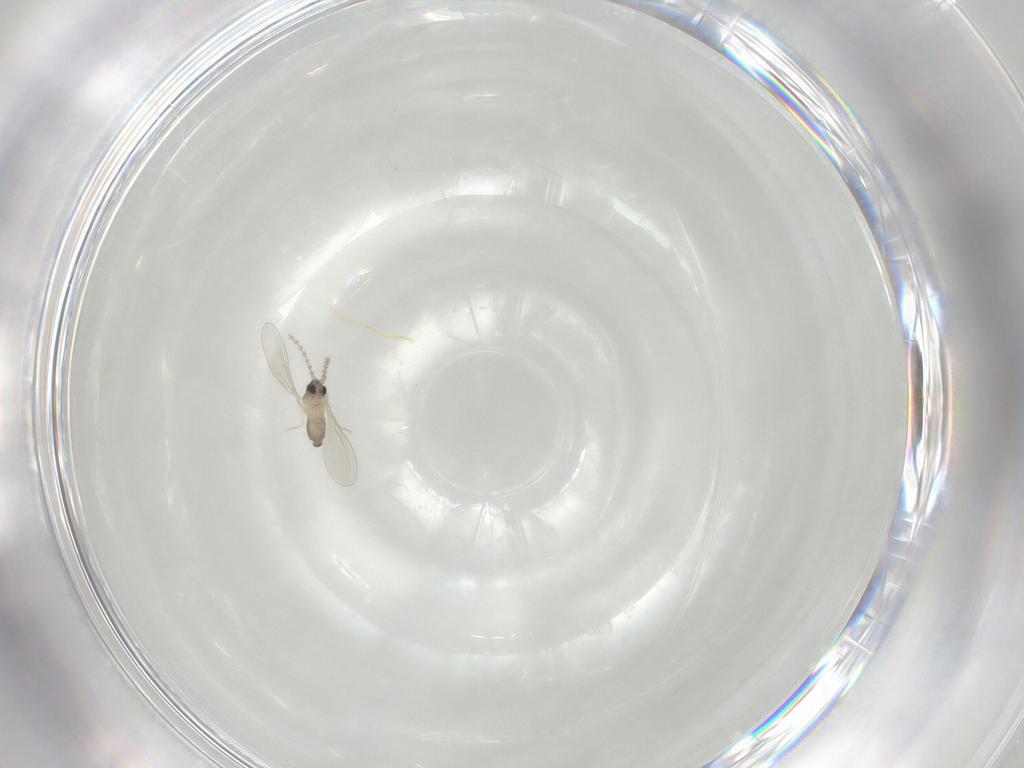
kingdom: Animalia
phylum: Arthropoda
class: Insecta
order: Diptera
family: Cecidomyiidae
